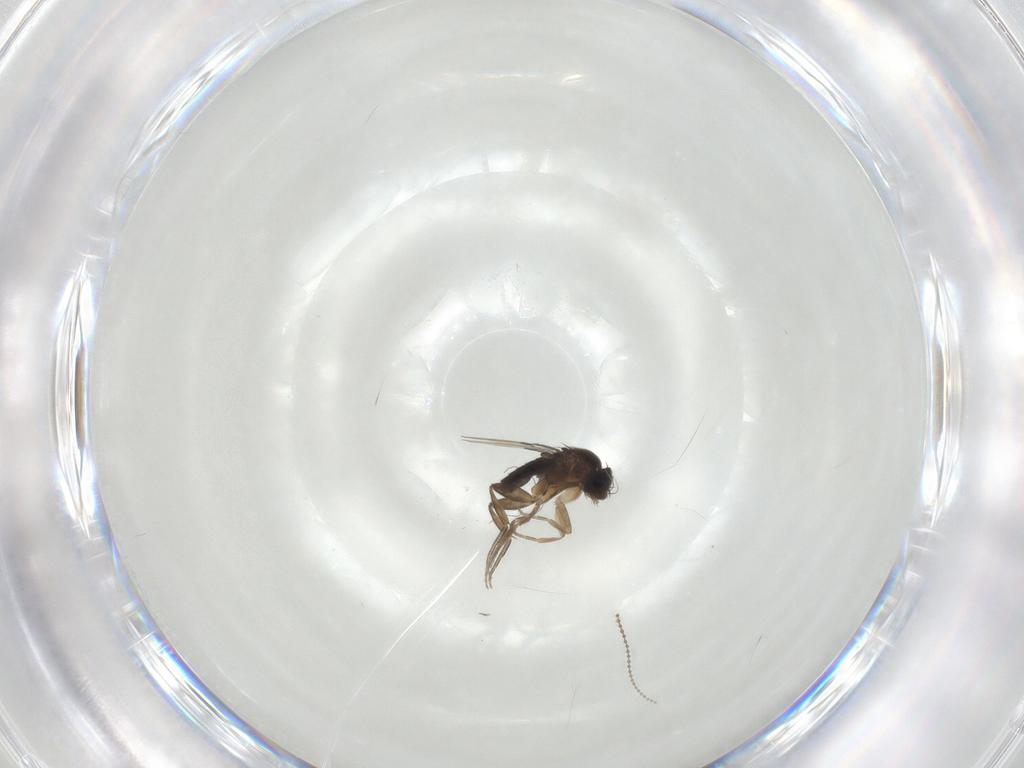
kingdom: Animalia
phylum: Arthropoda
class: Insecta
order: Diptera
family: Phoridae
